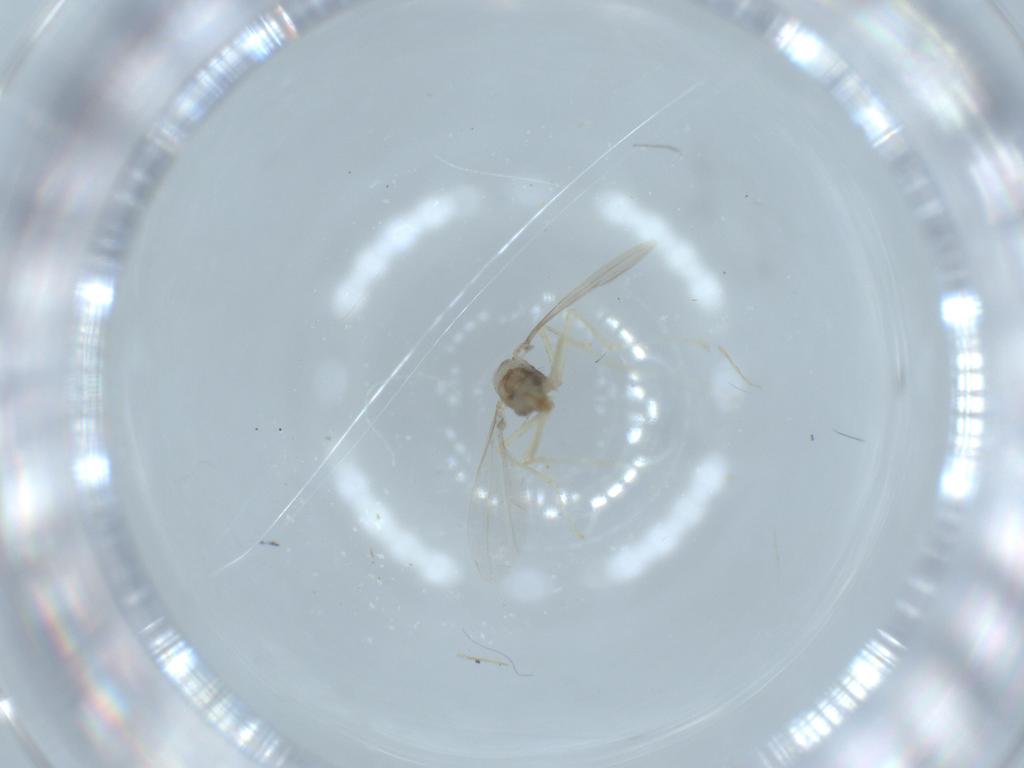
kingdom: Animalia
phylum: Arthropoda
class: Insecta
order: Diptera
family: Cecidomyiidae
